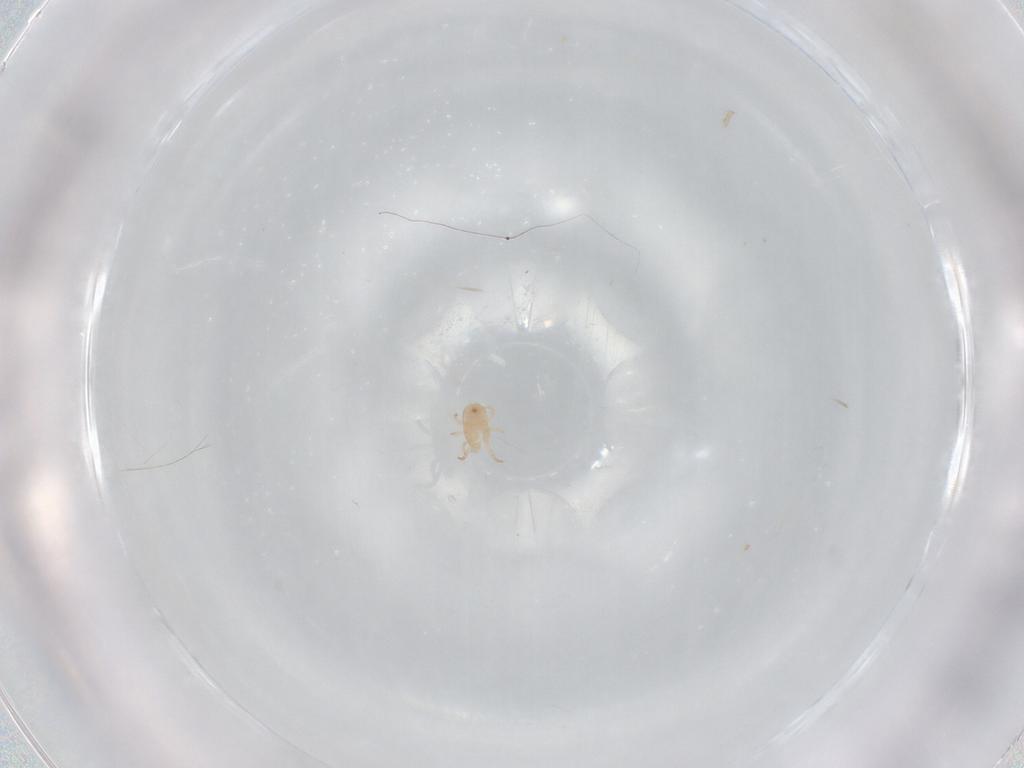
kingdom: Animalia
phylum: Arthropoda
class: Arachnida
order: Mesostigmata
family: Ameroseiidae
